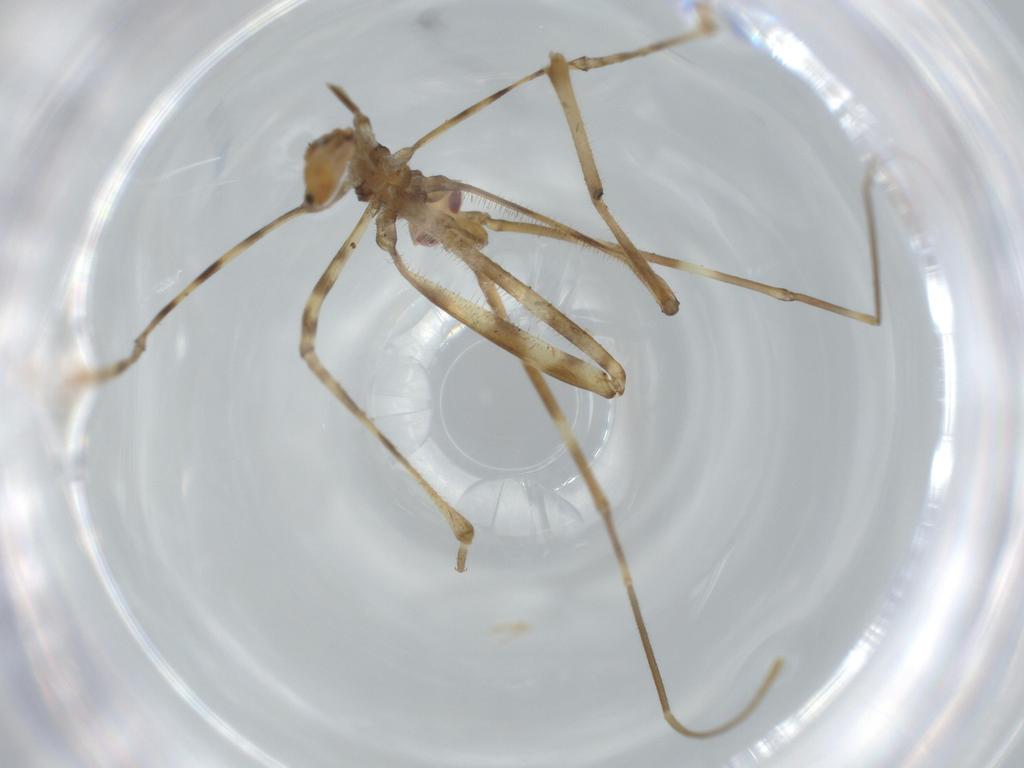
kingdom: Animalia
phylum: Arthropoda
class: Insecta
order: Hemiptera
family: Reduviidae
